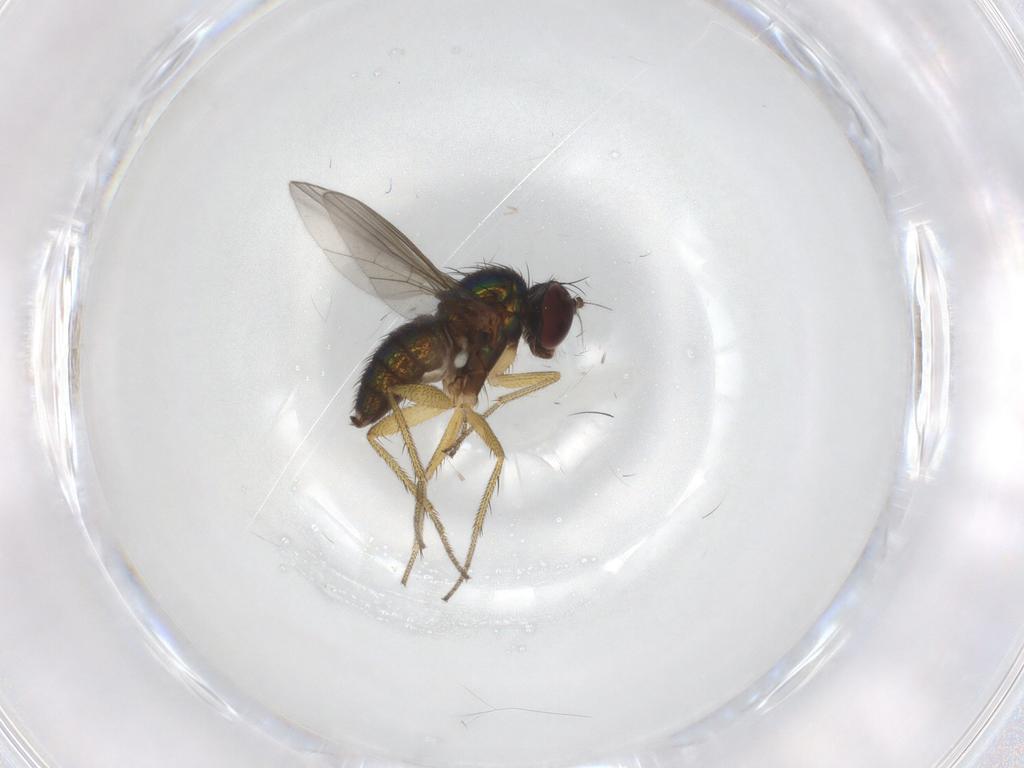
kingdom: Animalia
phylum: Arthropoda
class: Insecta
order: Diptera
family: Dolichopodidae
